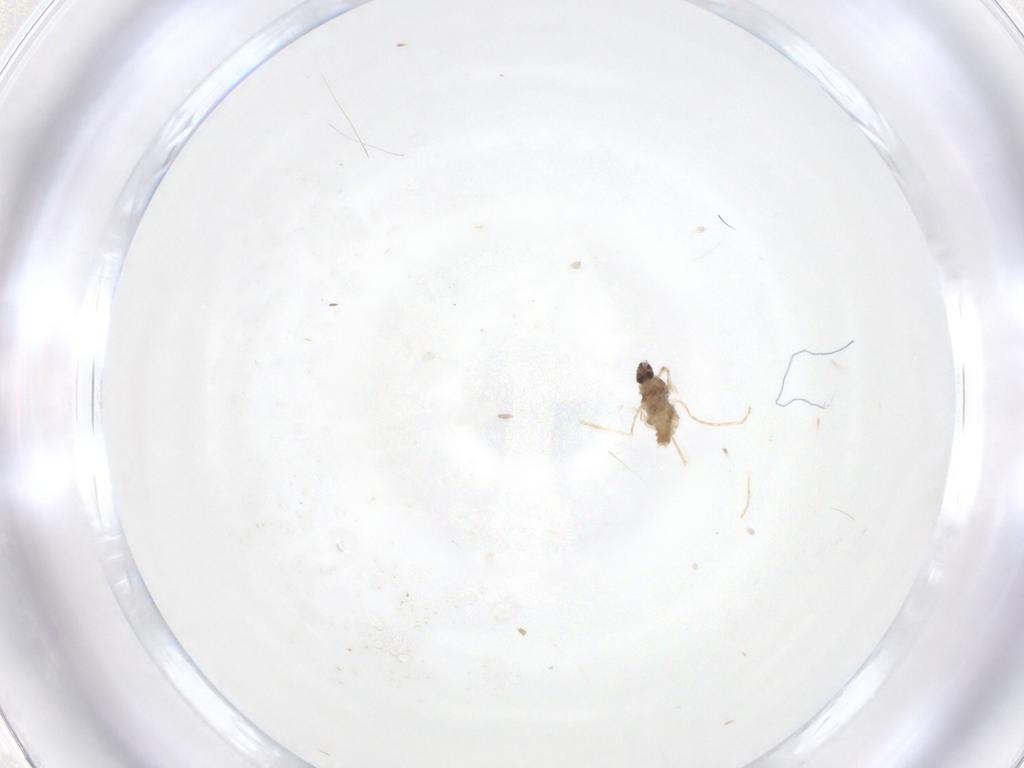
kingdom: Animalia
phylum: Arthropoda
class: Insecta
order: Diptera
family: Cecidomyiidae
